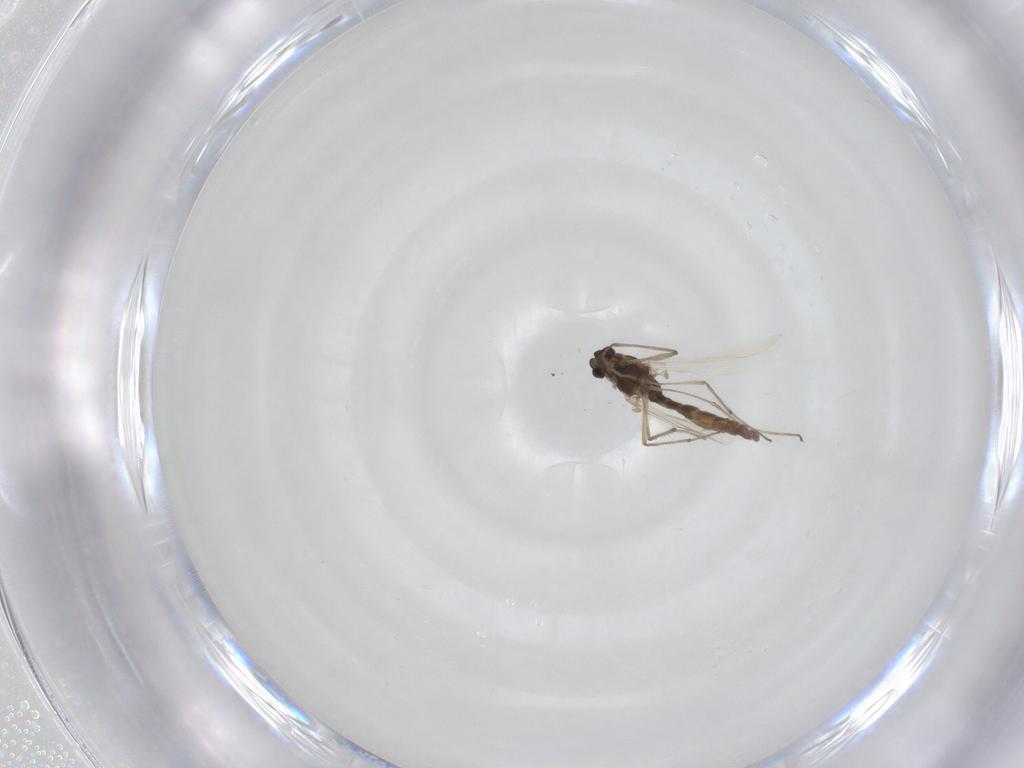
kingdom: Animalia
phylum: Arthropoda
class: Insecta
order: Diptera
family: Chironomidae
